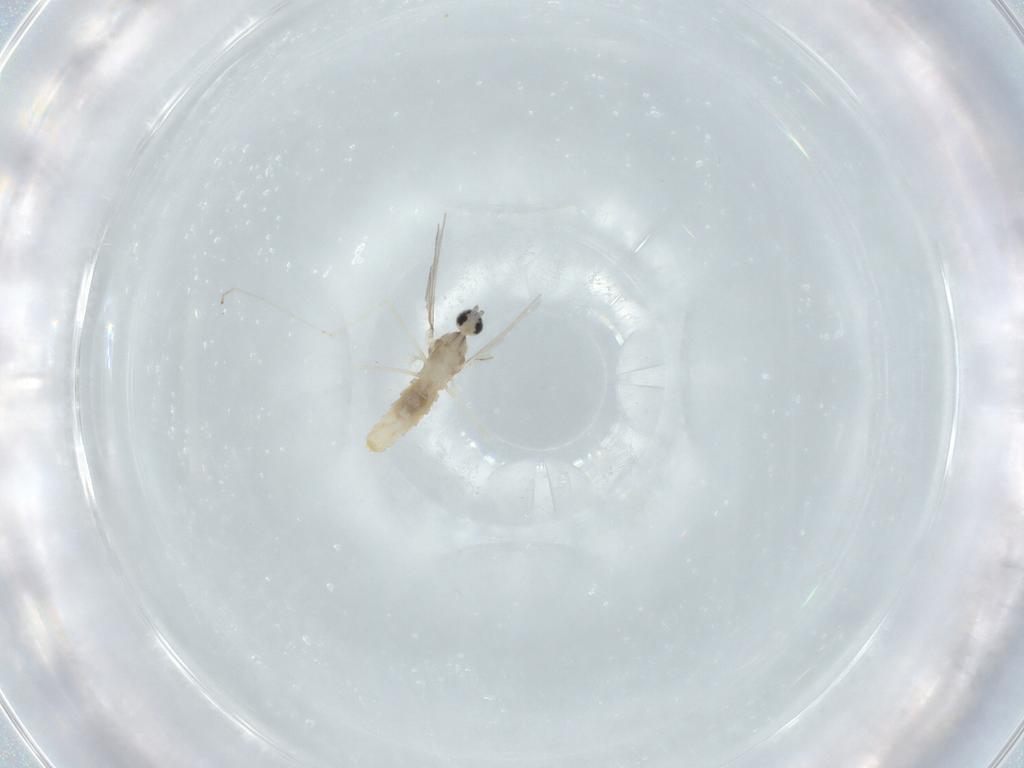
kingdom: Animalia
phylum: Arthropoda
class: Insecta
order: Diptera
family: Cecidomyiidae
